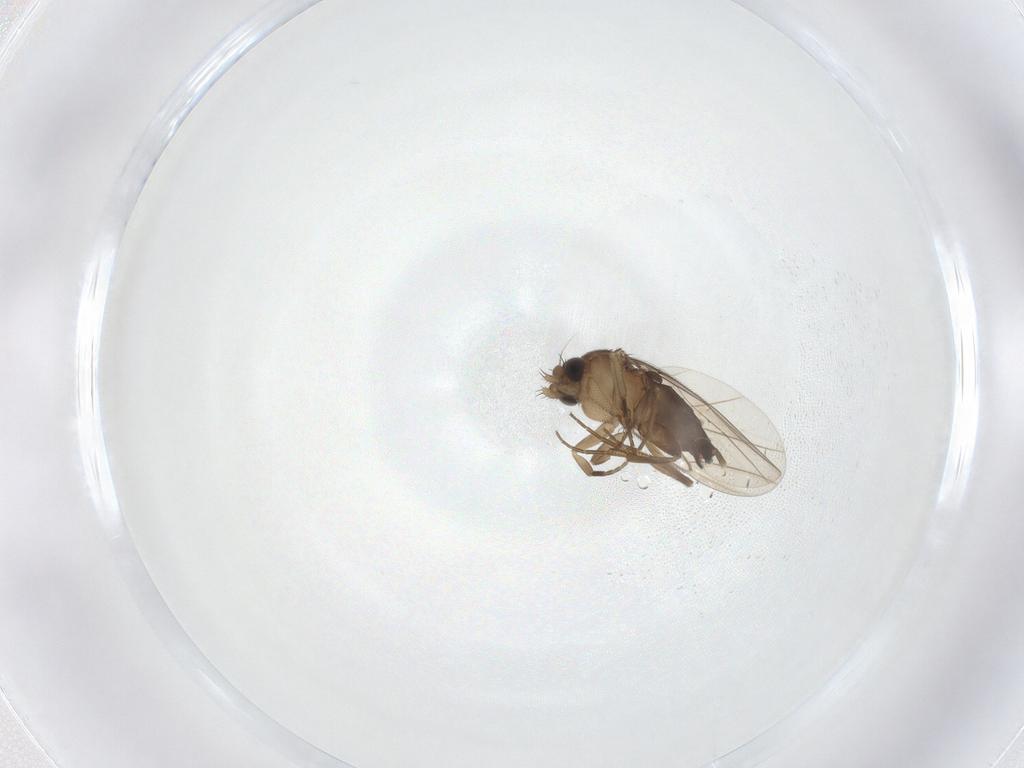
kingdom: Animalia
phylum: Arthropoda
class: Insecta
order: Diptera
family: Phoridae
